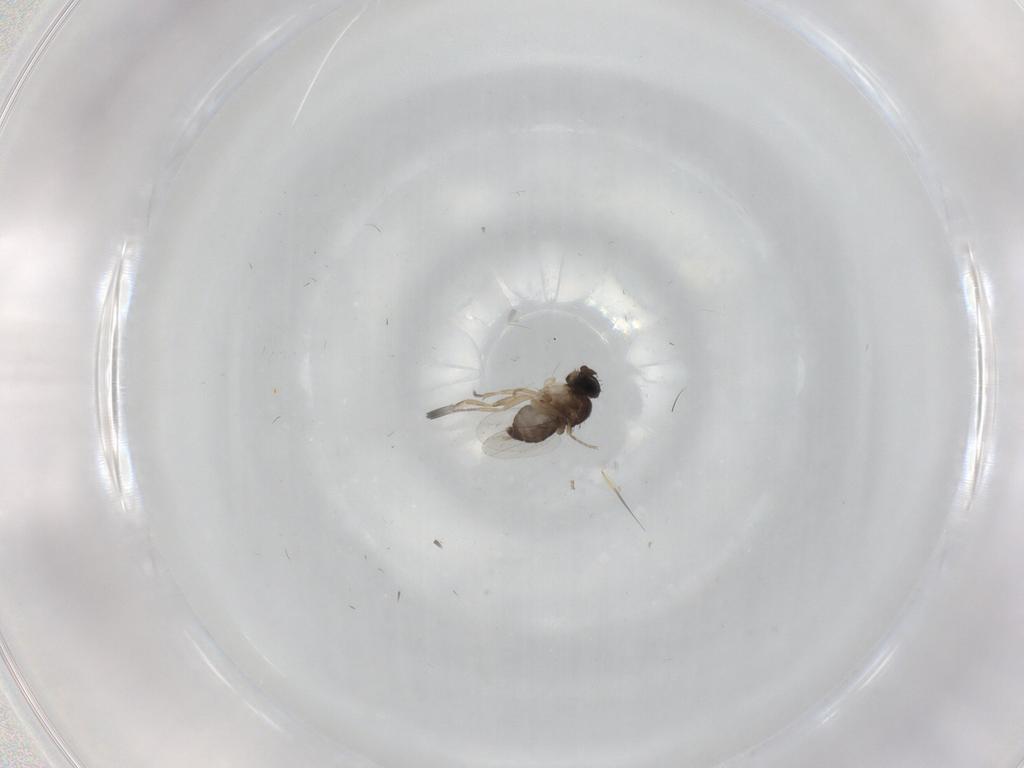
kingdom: Animalia
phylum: Arthropoda
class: Insecta
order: Diptera
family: Phoridae
